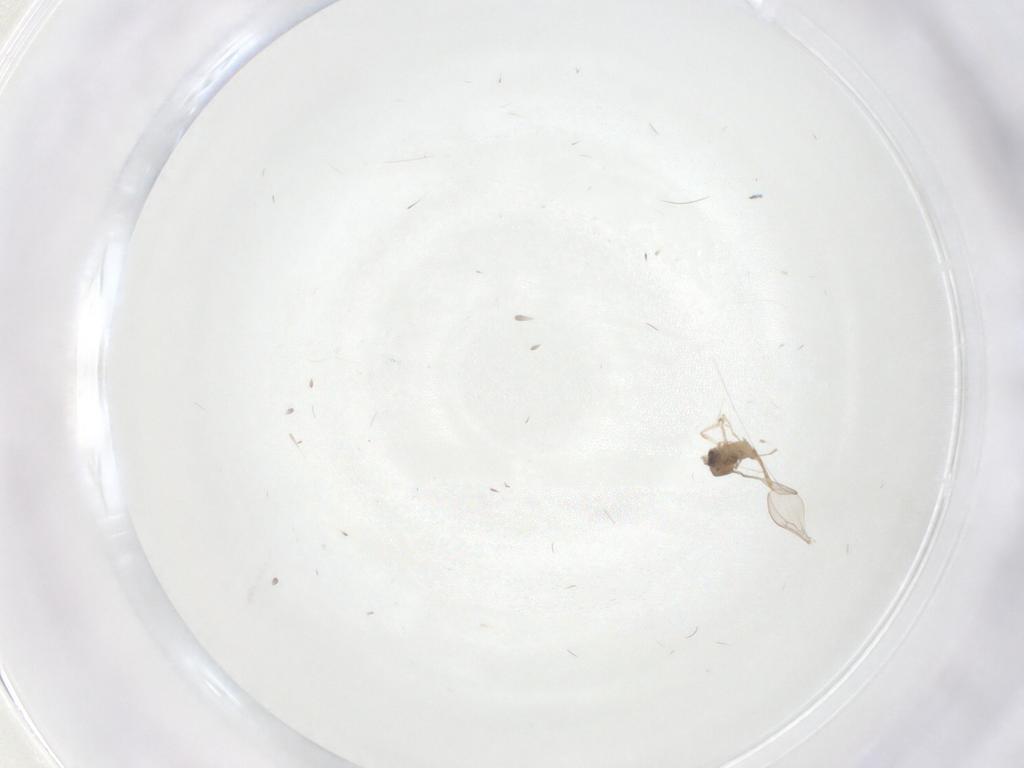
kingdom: Animalia
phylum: Arthropoda
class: Insecta
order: Diptera
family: Cecidomyiidae
